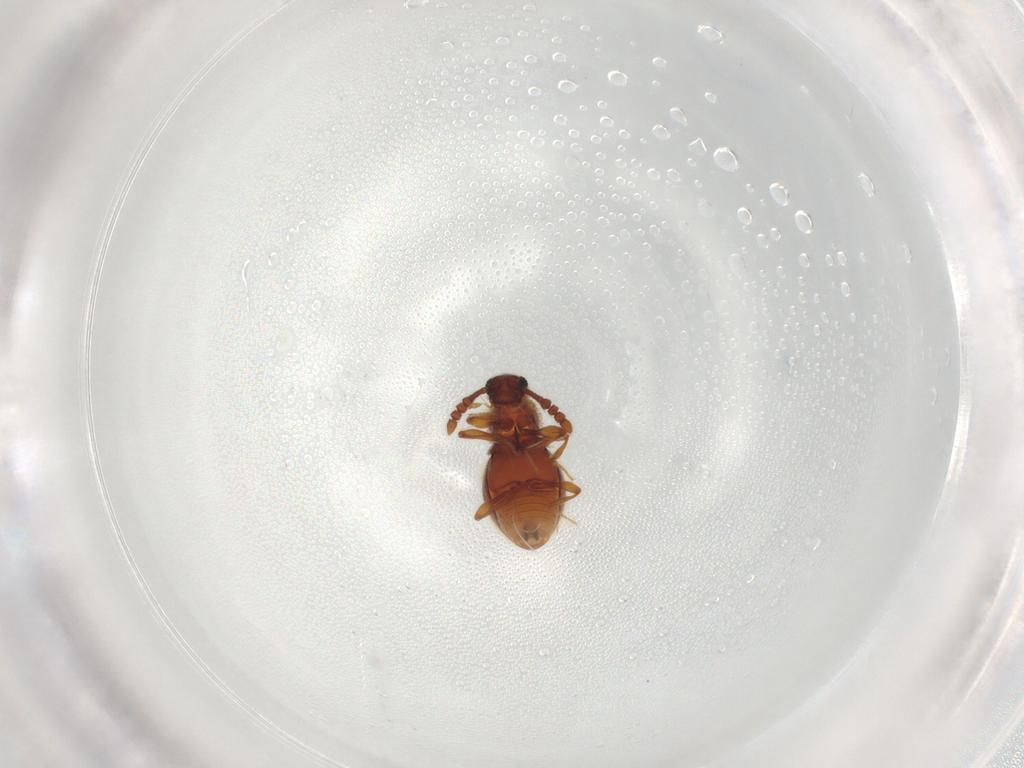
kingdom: Animalia
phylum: Arthropoda
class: Insecta
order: Coleoptera
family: Staphylinidae
